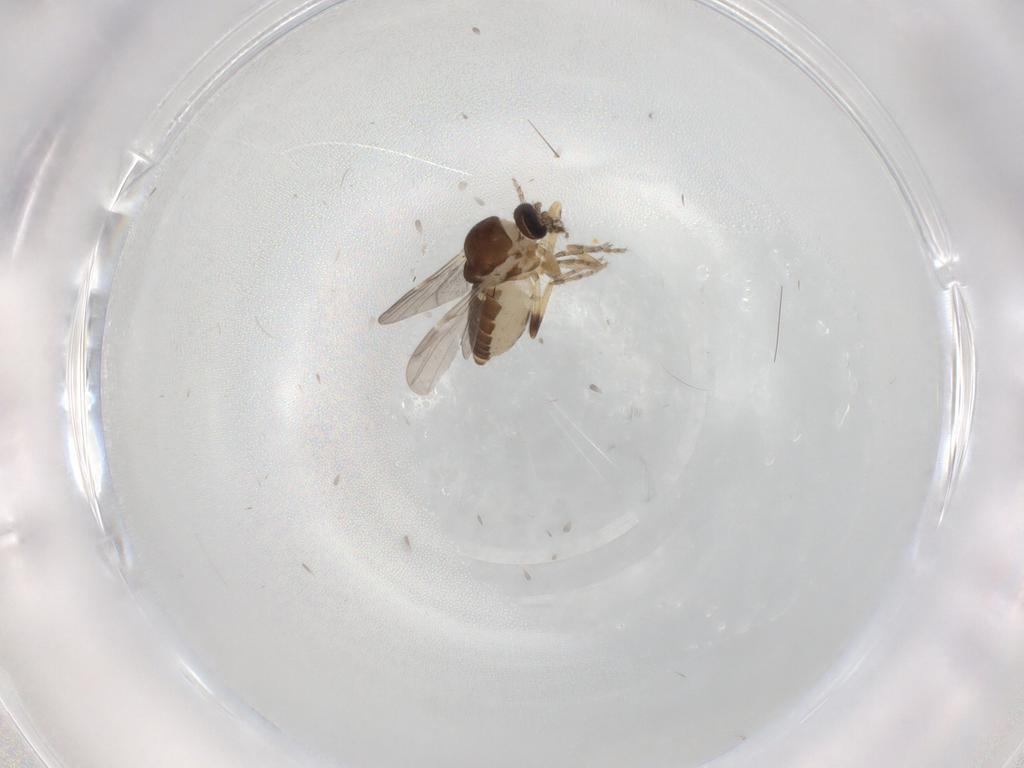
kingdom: Animalia
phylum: Arthropoda
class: Insecta
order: Diptera
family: Ceratopogonidae
